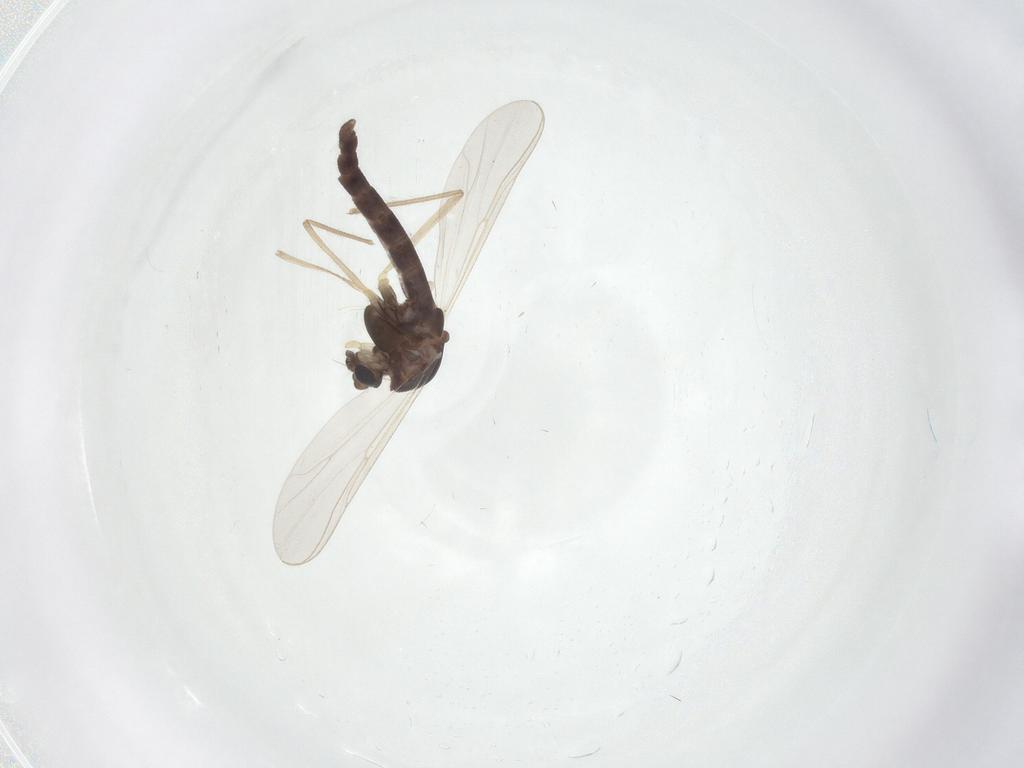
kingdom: Animalia
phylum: Arthropoda
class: Insecta
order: Diptera
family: Chironomidae
